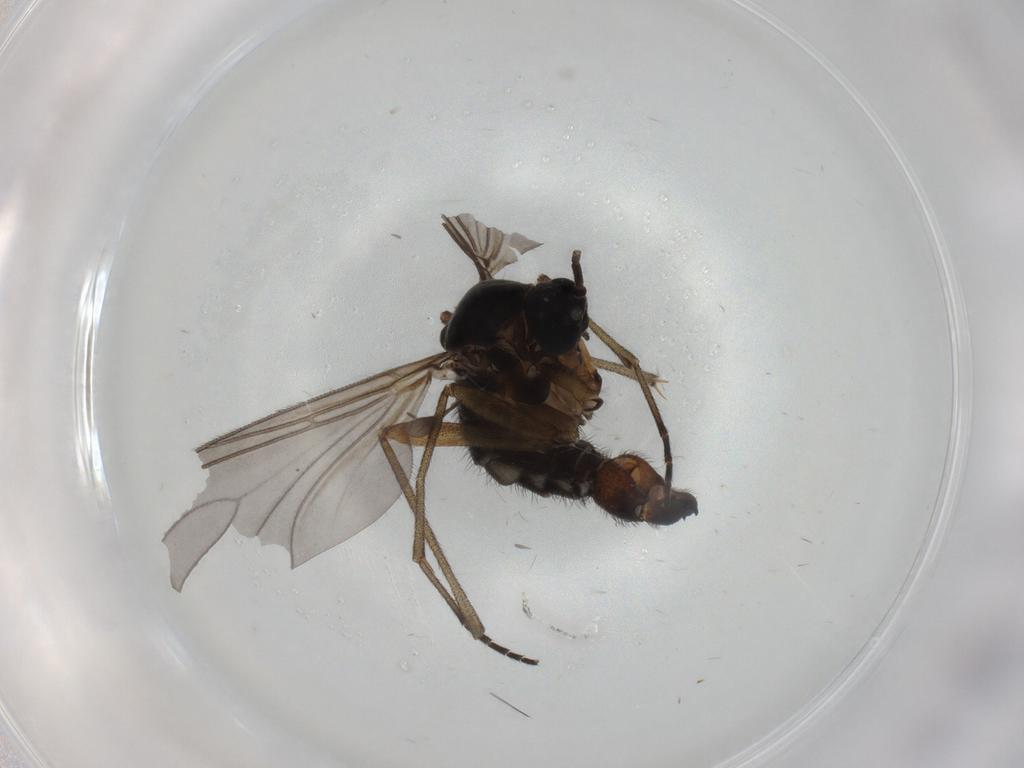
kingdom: Animalia
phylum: Arthropoda
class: Insecta
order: Diptera
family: Sciaridae
